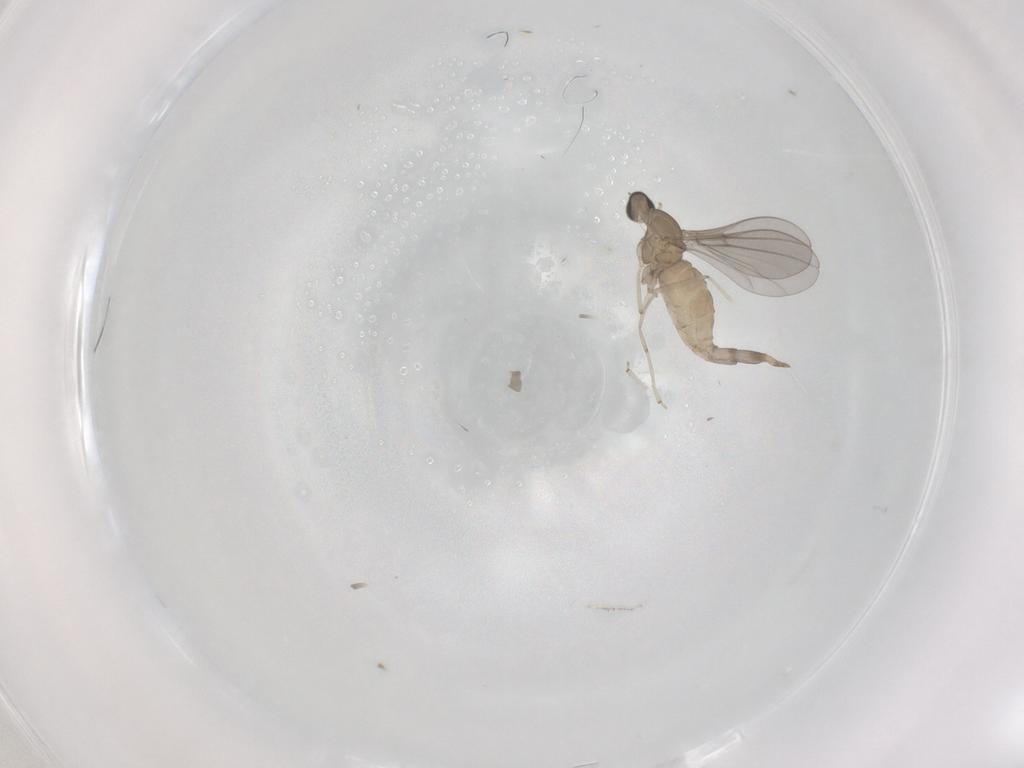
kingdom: Animalia
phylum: Arthropoda
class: Insecta
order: Diptera
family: Cecidomyiidae
